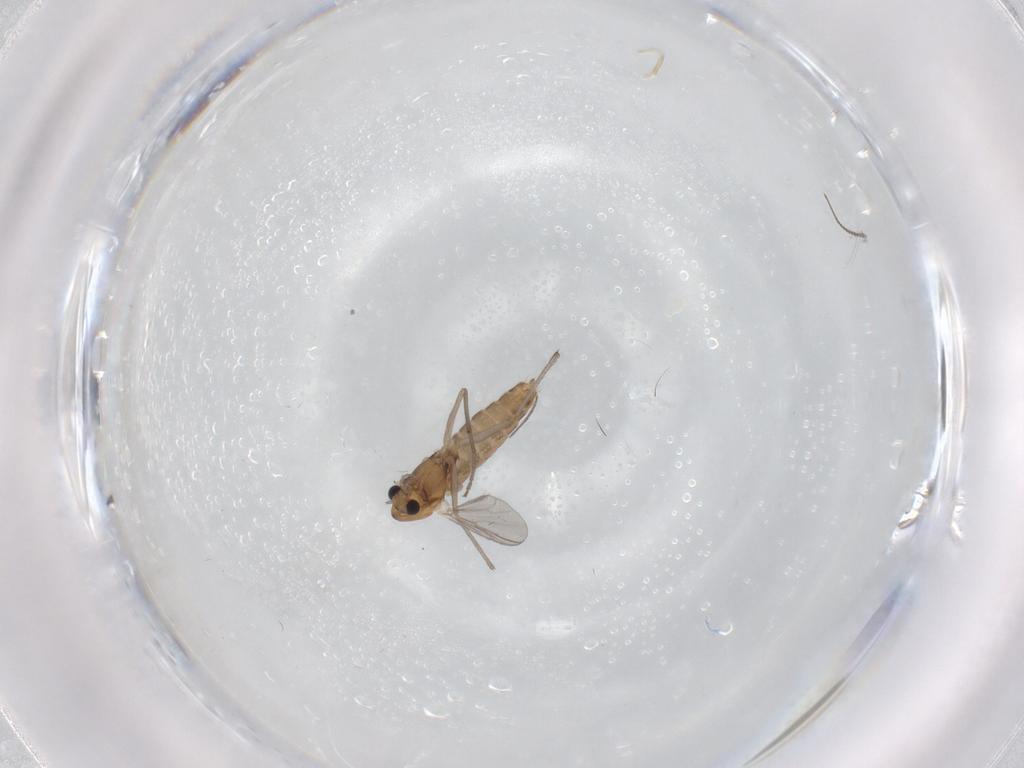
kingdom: Animalia
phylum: Arthropoda
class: Insecta
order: Diptera
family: Chironomidae
